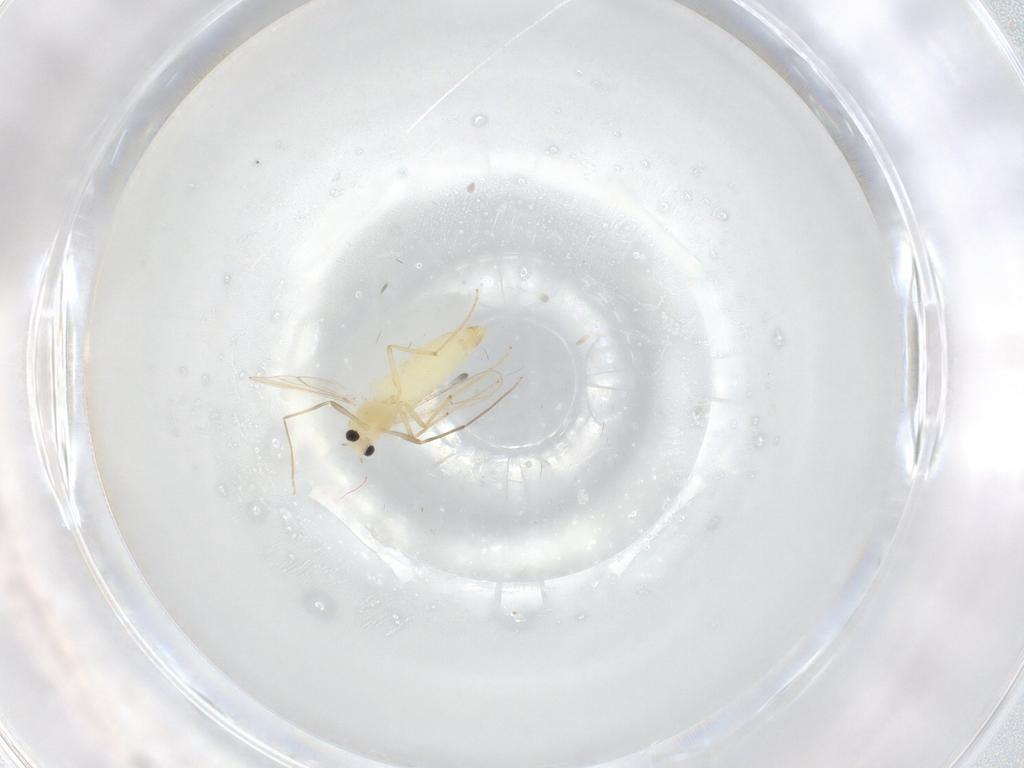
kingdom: Animalia
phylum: Arthropoda
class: Insecta
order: Diptera
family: Chironomidae
